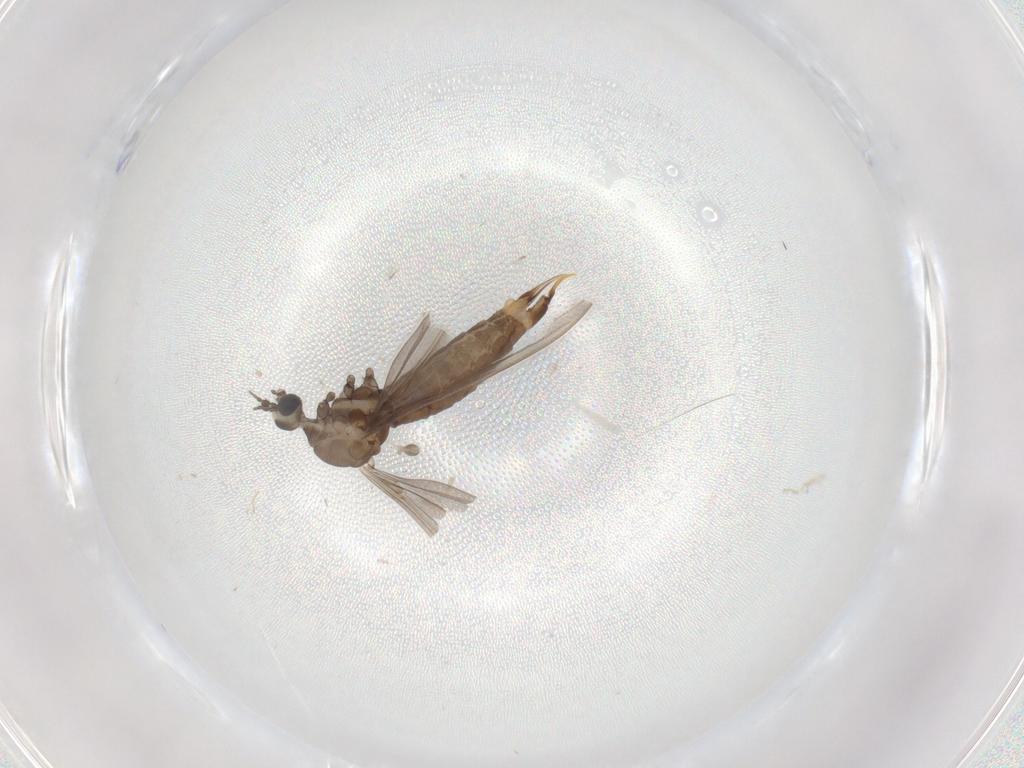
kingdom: Animalia
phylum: Arthropoda
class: Insecta
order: Diptera
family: Limoniidae
